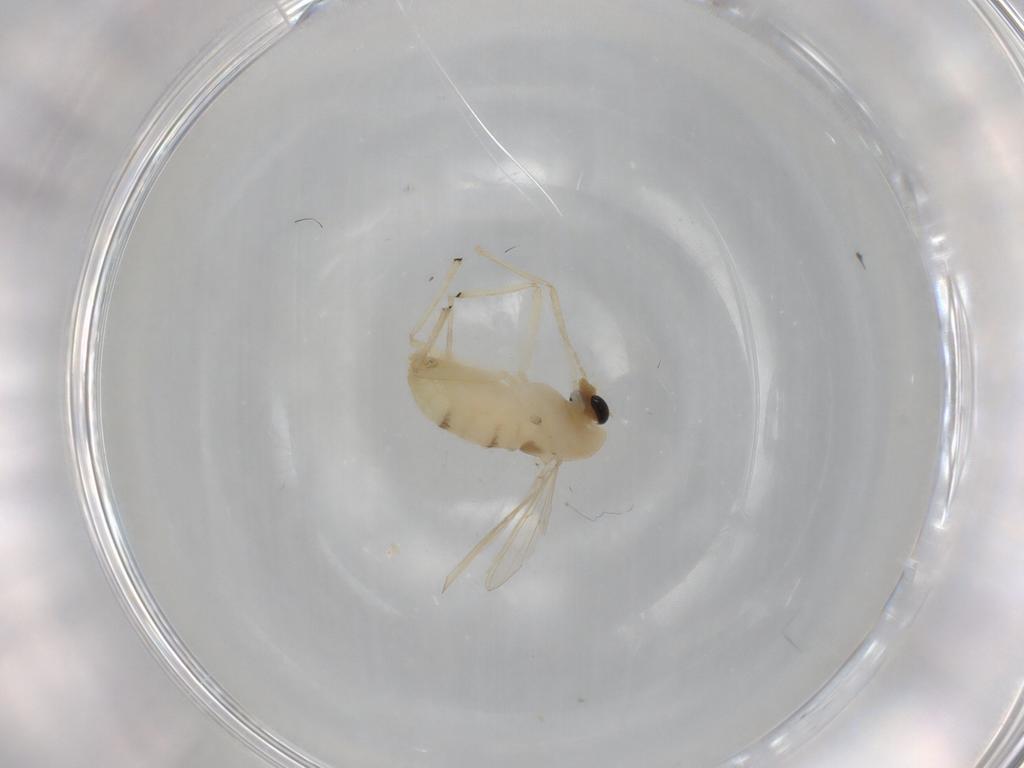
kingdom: Animalia
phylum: Arthropoda
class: Insecta
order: Diptera
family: Chironomidae
